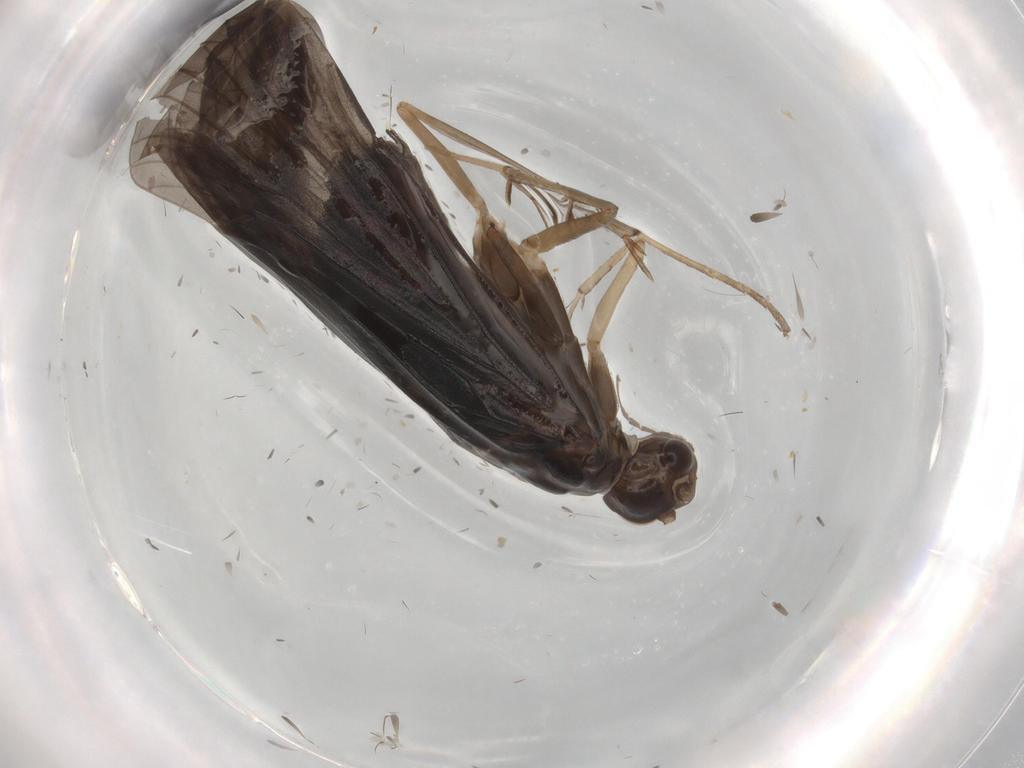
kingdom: Animalia
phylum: Arthropoda
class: Insecta
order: Trichoptera
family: Hydropsychidae
